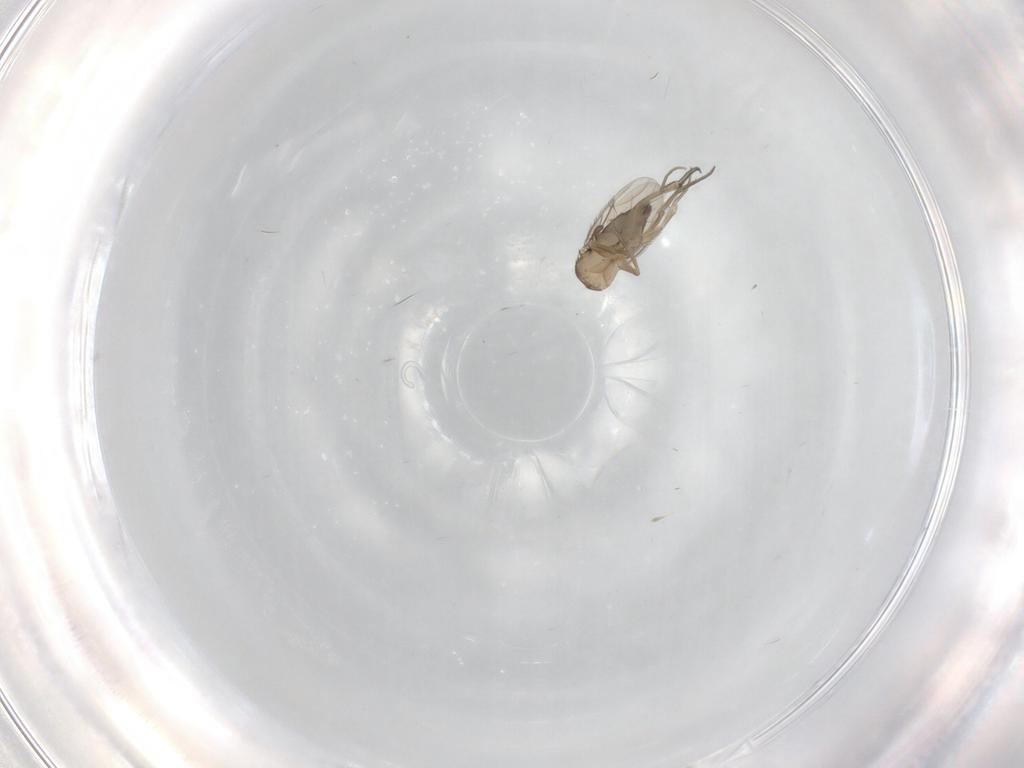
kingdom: Animalia
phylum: Arthropoda
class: Insecta
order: Diptera
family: Phoridae
